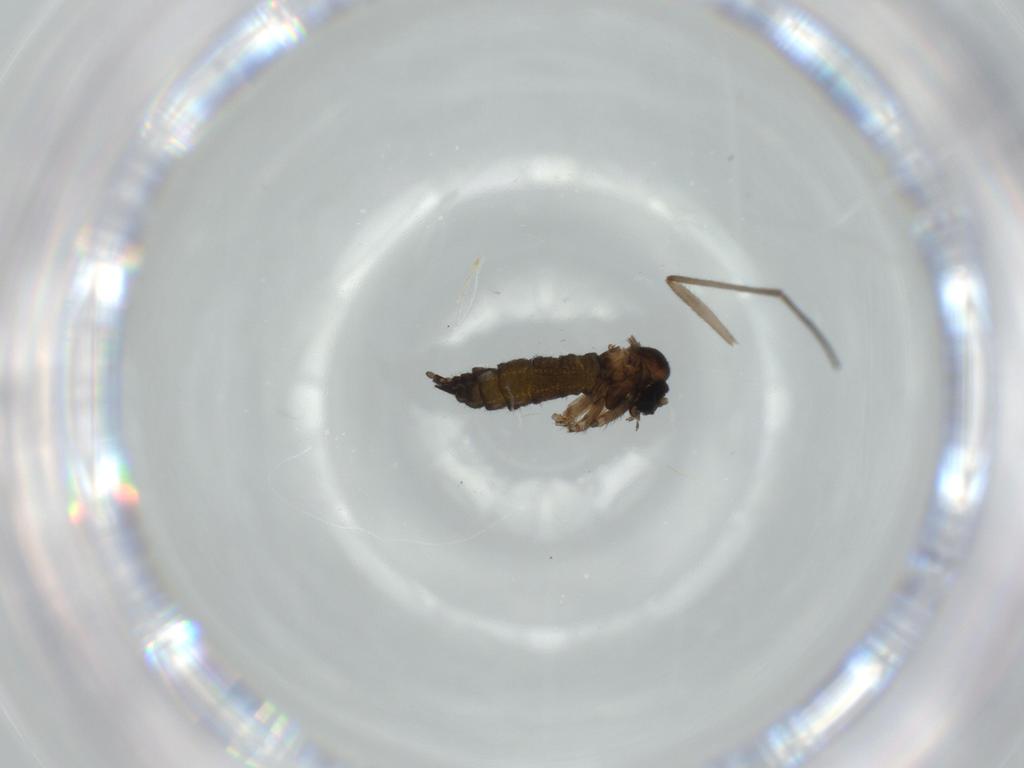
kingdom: Animalia
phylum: Arthropoda
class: Insecta
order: Diptera
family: Sciaridae
